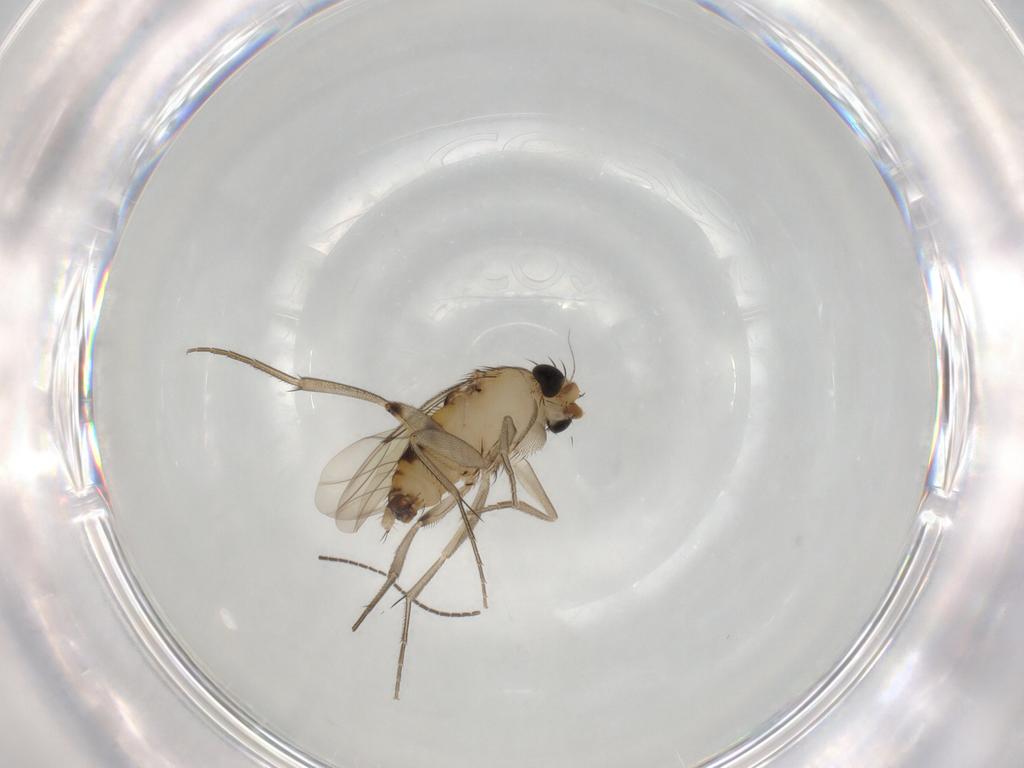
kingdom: Animalia
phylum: Arthropoda
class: Insecta
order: Diptera
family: Phoridae
